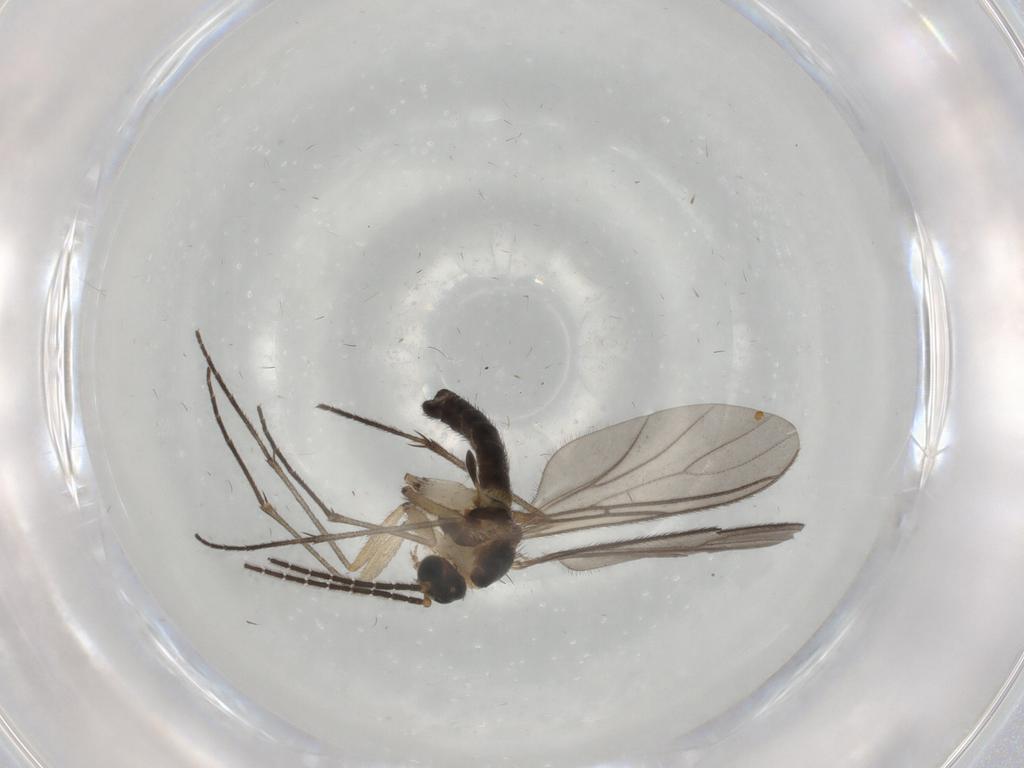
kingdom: Animalia
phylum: Arthropoda
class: Insecta
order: Diptera
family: Sciaridae
